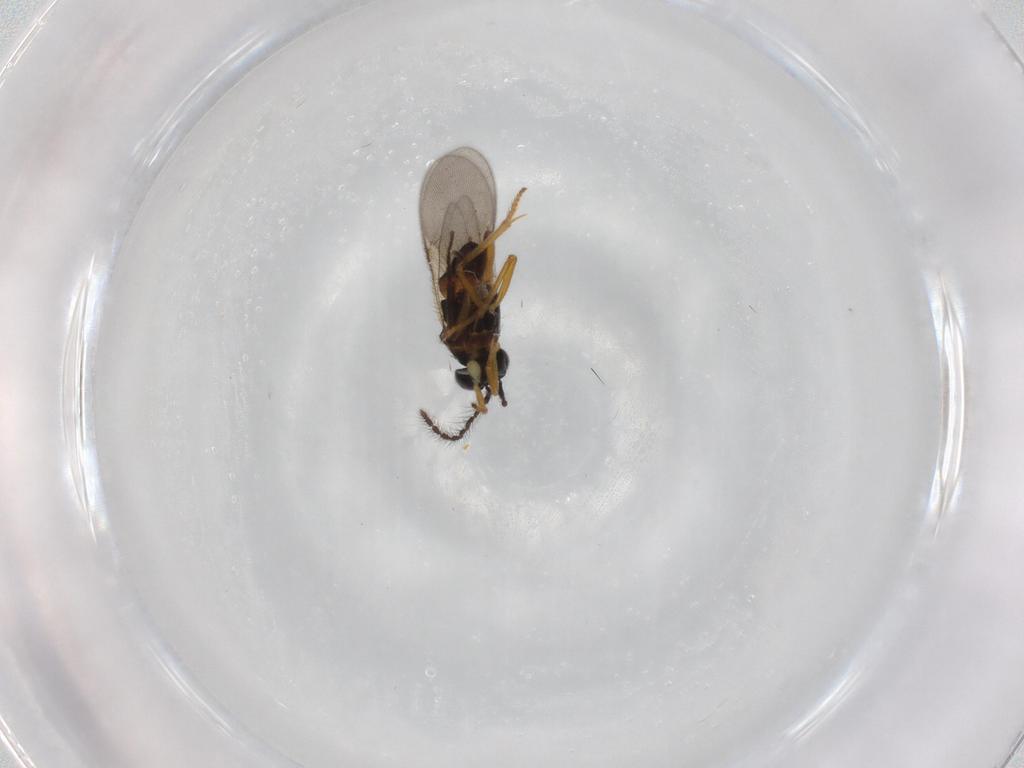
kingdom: Animalia
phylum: Arthropoda
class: Insecta
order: Hymenoptera
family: Diapriidae
